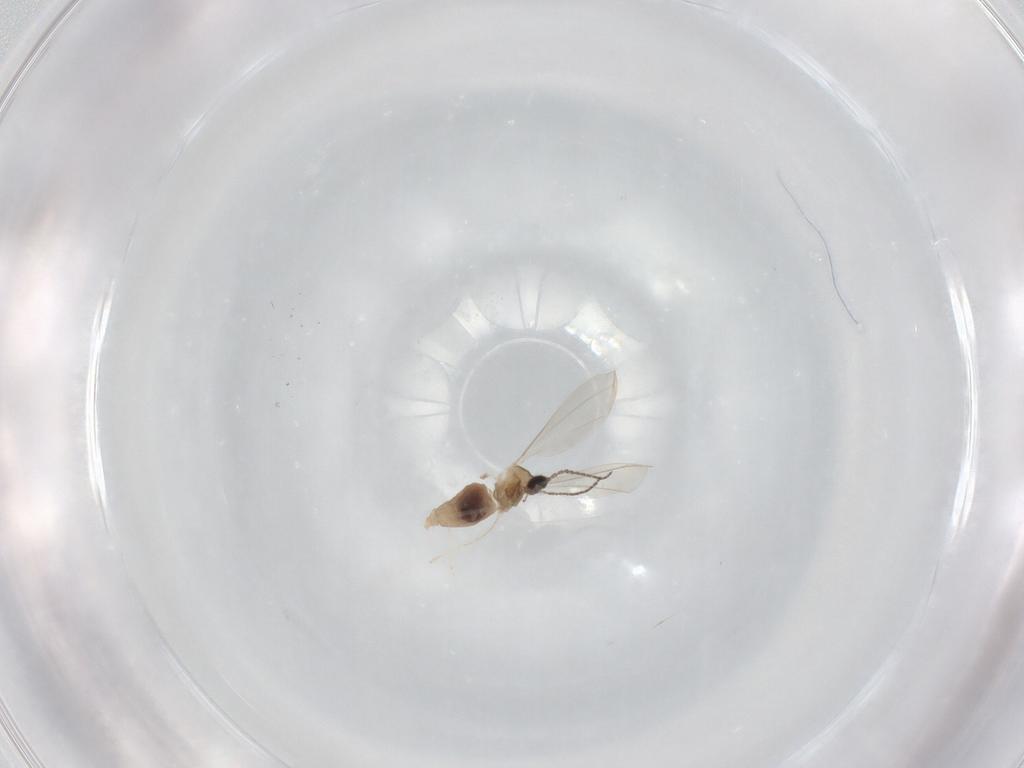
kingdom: Animalia
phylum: Arthropoda
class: Insecta
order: Diptera
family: Cecidomyiidae
